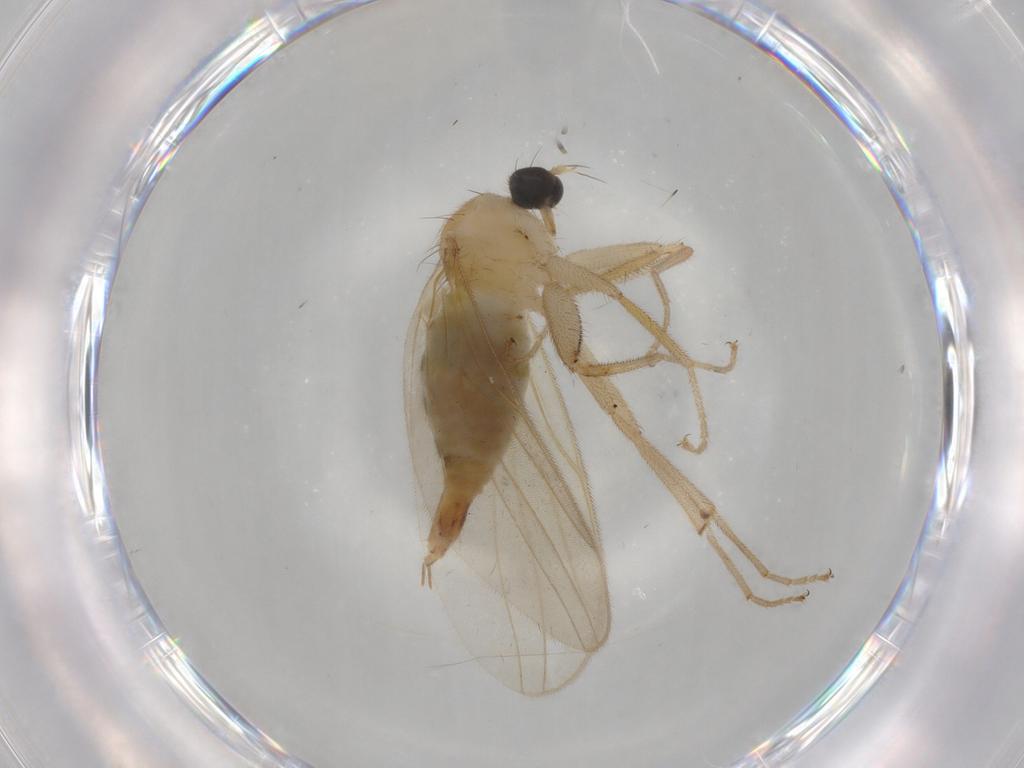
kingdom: Animalia
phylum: Arthropoda
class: Insecta
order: Diptera
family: Hybotidae
